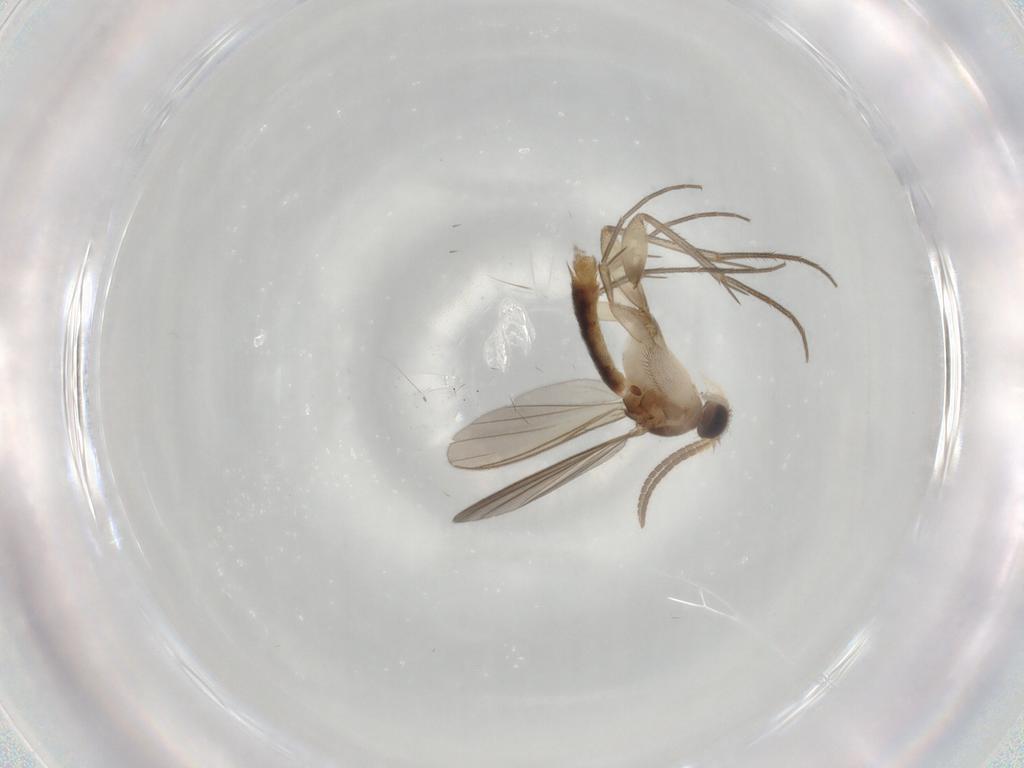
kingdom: Animalia
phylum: Arthropoda
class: Insecta
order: Diptera
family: Mycetophilidae
